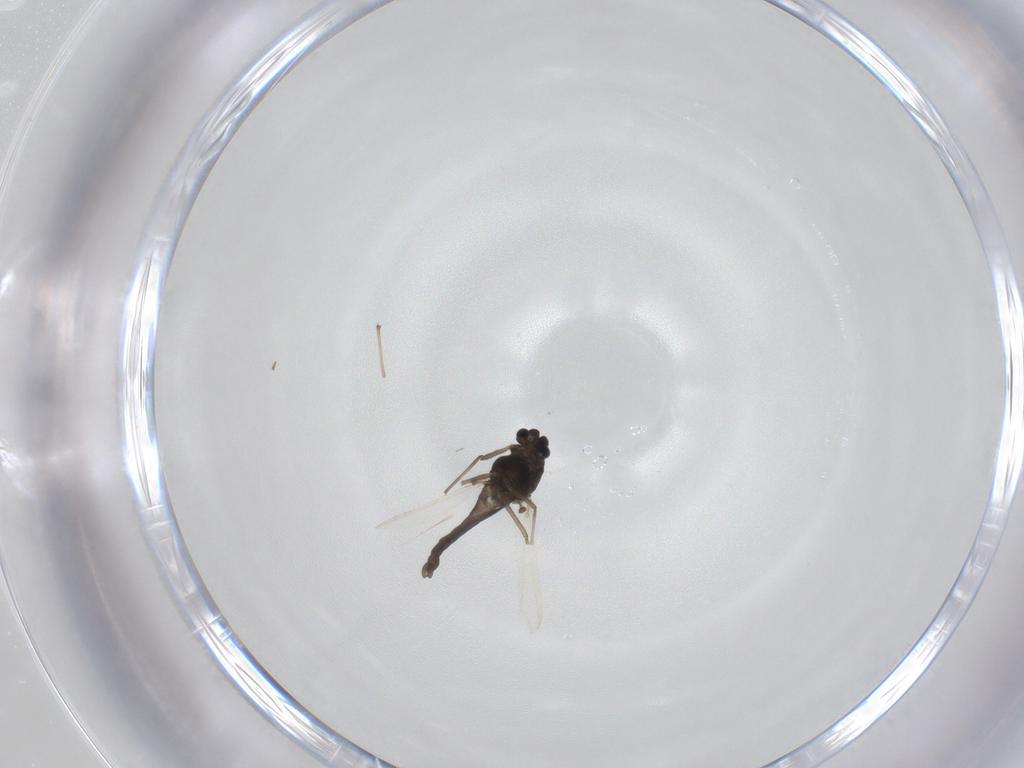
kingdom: Animalia
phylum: Arthropoda
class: Insecta
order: Diptera
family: Chironomidae
